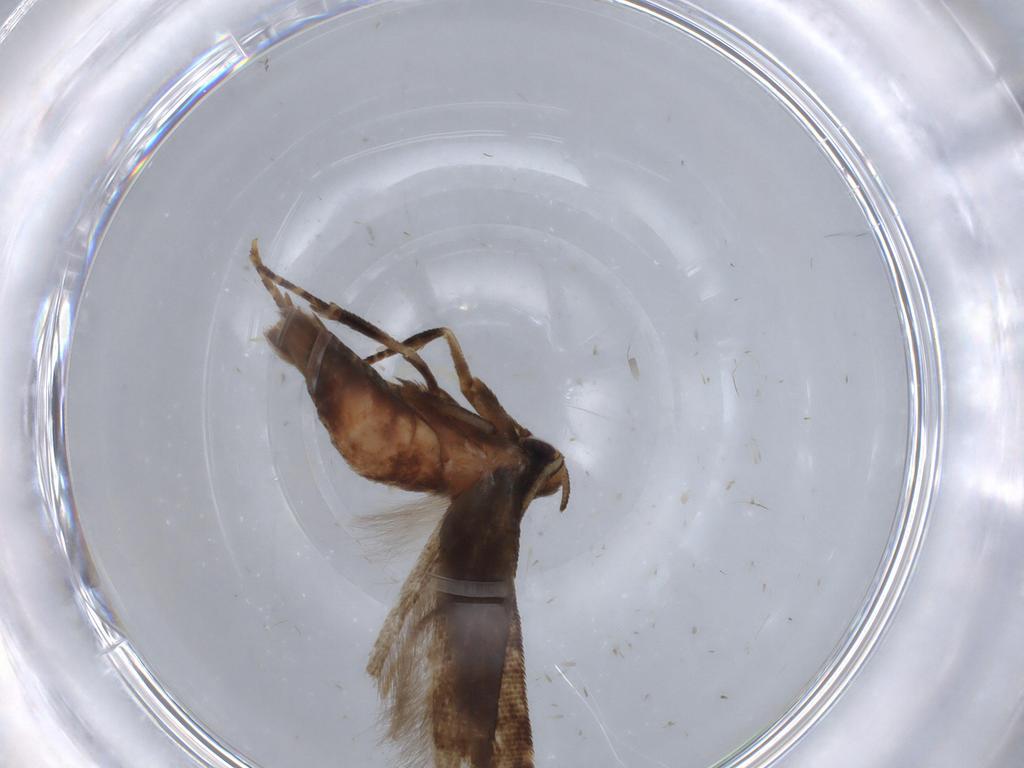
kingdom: Animalia
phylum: Arthropoda
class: Insecta
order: Lepidoptera
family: Cosmopterigidae
